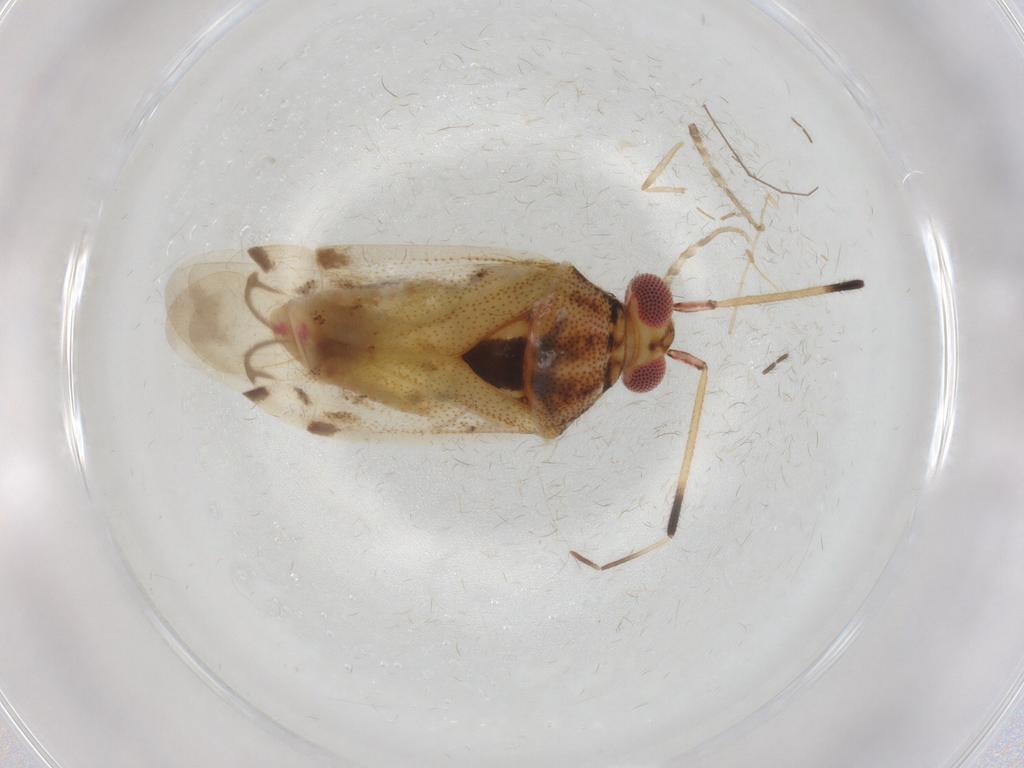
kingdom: Animalia
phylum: Arthropoda
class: Insecta
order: Hemiptera
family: Miridae
